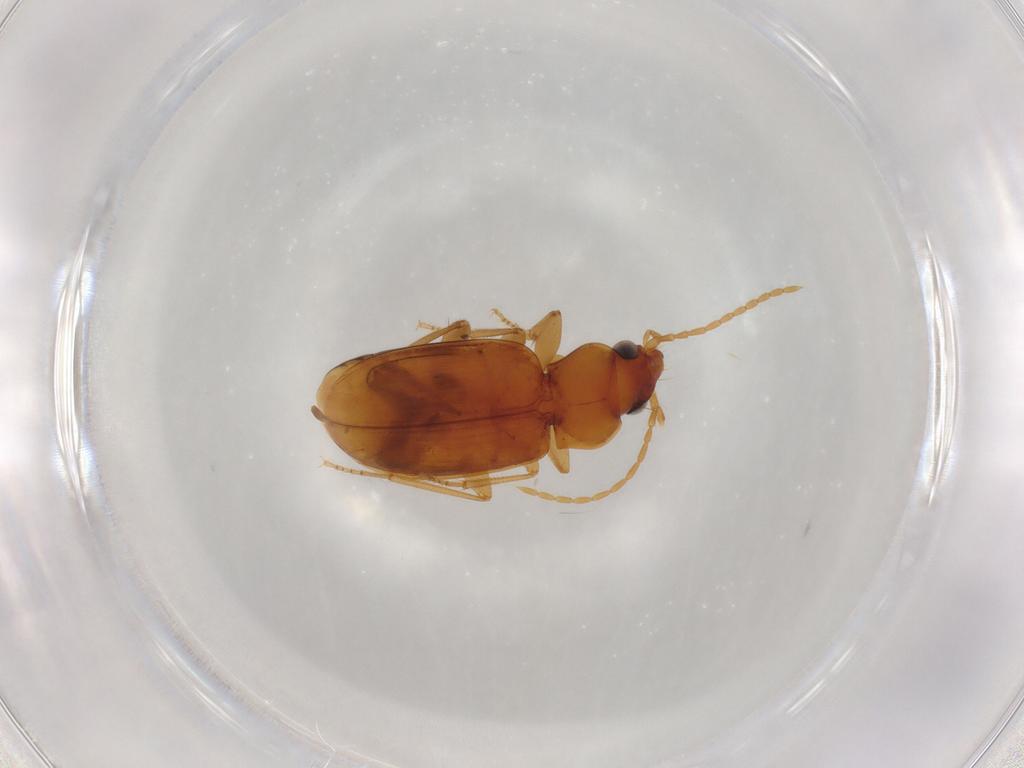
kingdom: Animalia
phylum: Arthropoda
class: Insecta
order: Coleoptera
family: Carabidae
